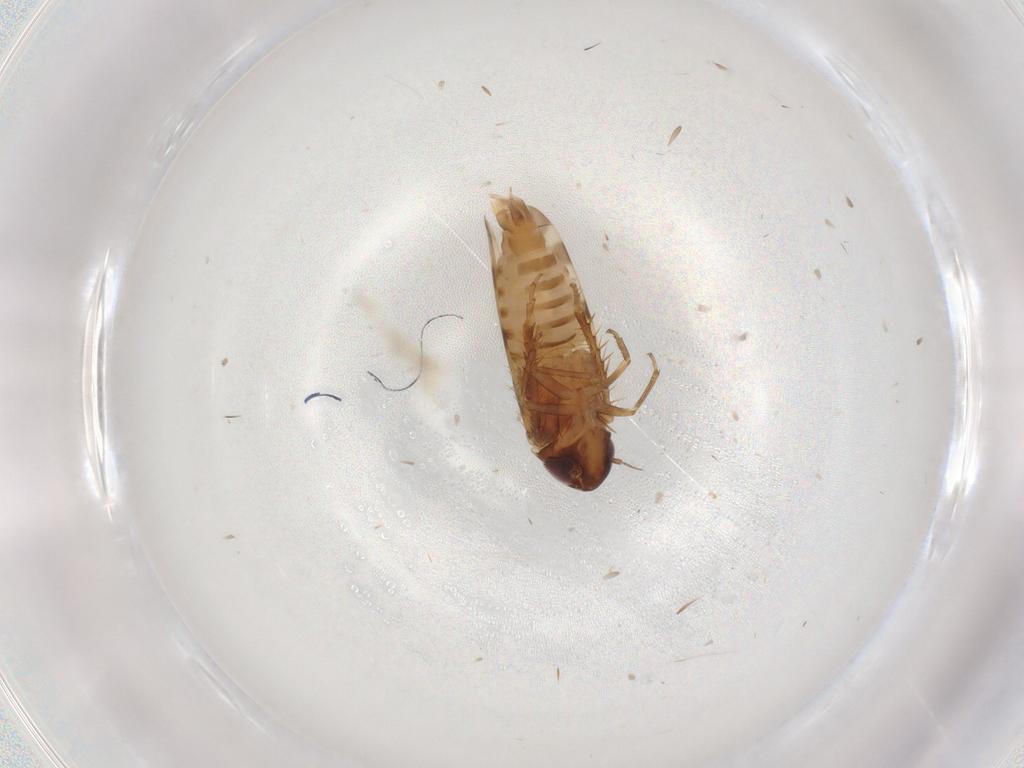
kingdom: Animalia
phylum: Arthropoda
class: Insecta
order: Hemiptera
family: Cicadellidae
